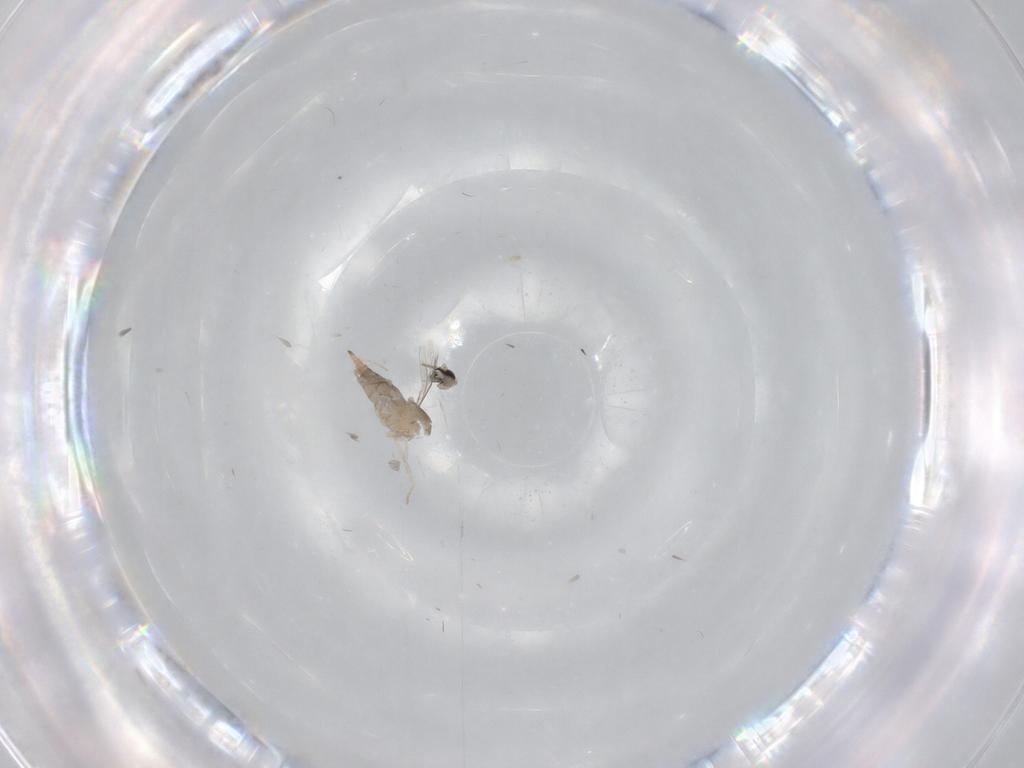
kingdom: Animalia
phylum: Arthropoda
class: Insecta
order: Diptera
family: Cecidomyiidae
